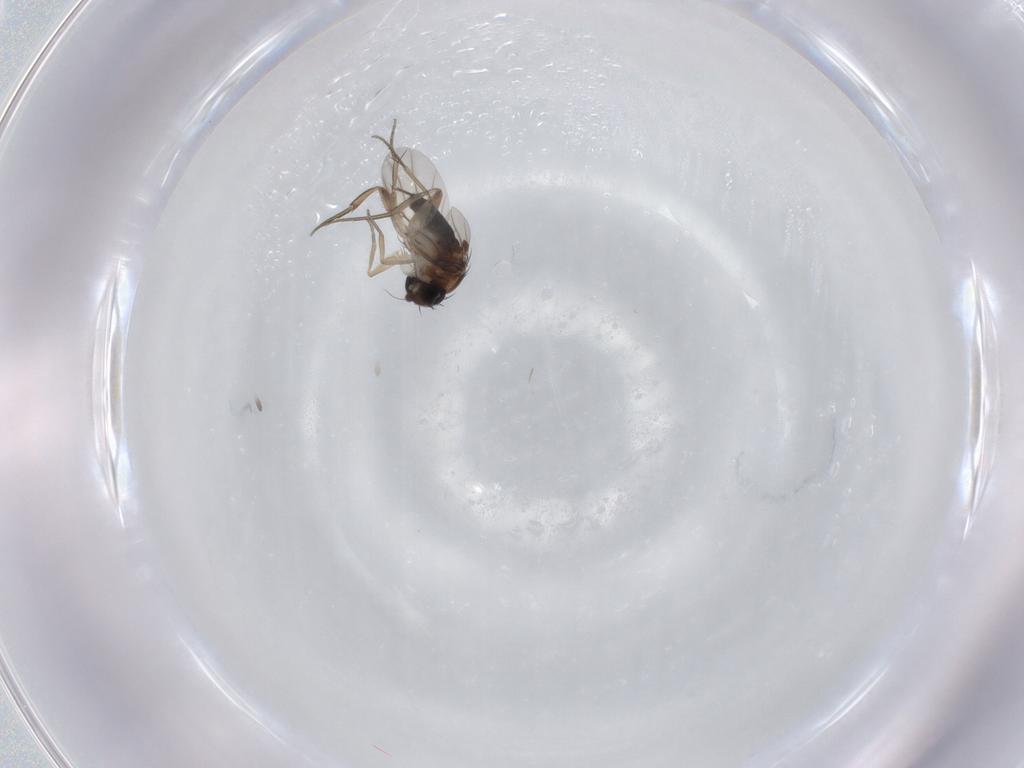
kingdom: Animalia
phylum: Arthropoda
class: Insecta
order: Diptera
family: Phoridae
